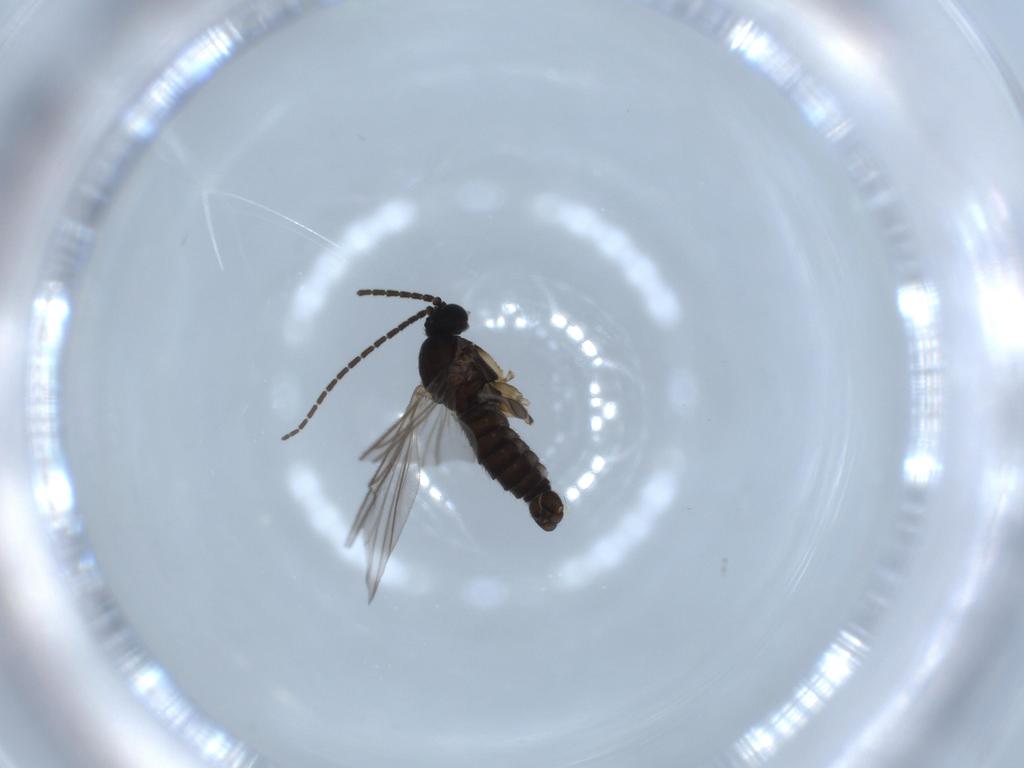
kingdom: Animalia
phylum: Arthropoda
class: Insecta
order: Diptera
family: Sciaridae
